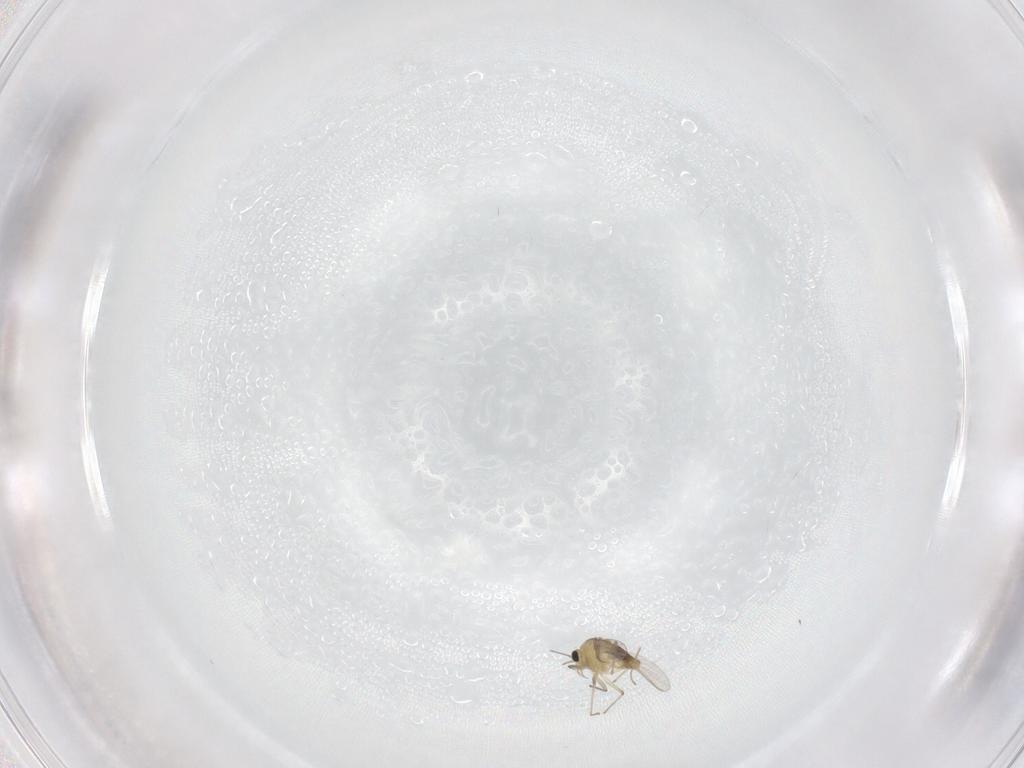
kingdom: Animalia
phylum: Arthropoda
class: Insecta
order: Diptera
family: Chironomidae
